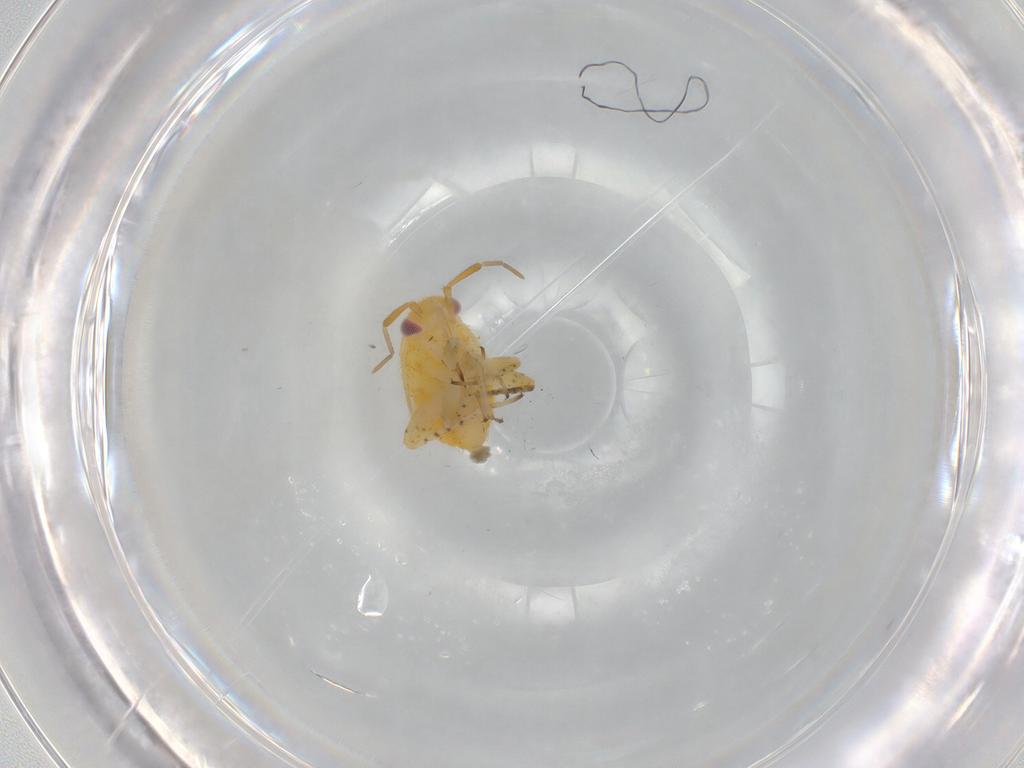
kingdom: Animalia
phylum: Arthropoda
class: Insecta
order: Hemiptera
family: Miridae
